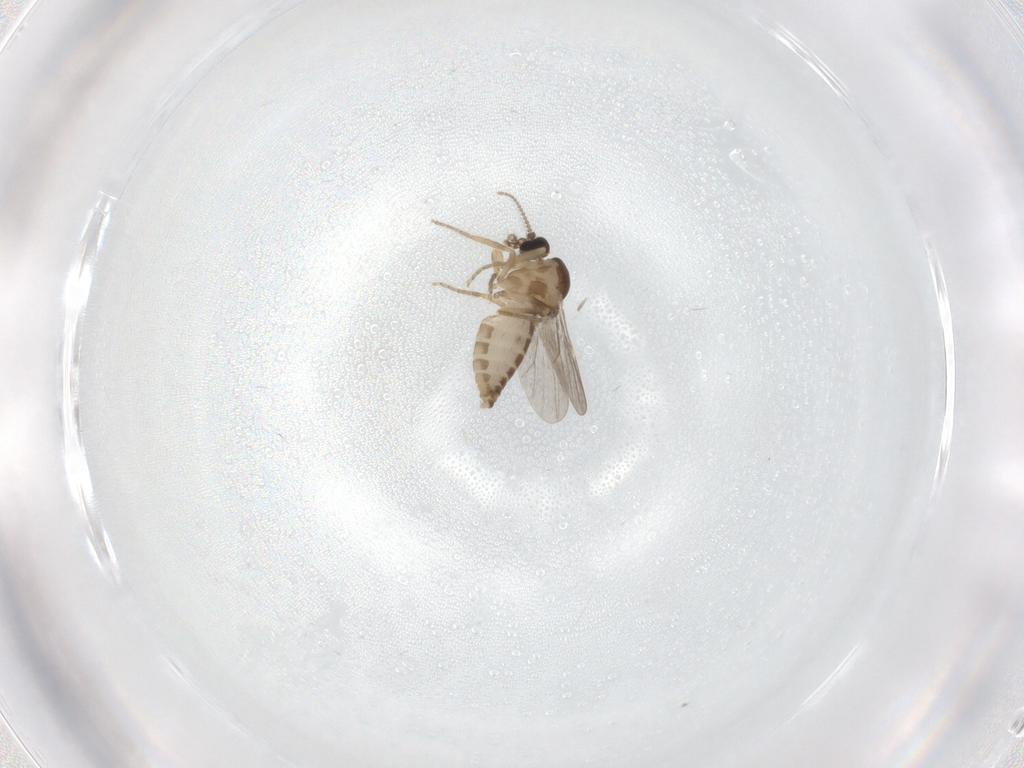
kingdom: Animalia
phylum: Arthropoda
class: Insecta
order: Diptera
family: Ceratopogonidae
